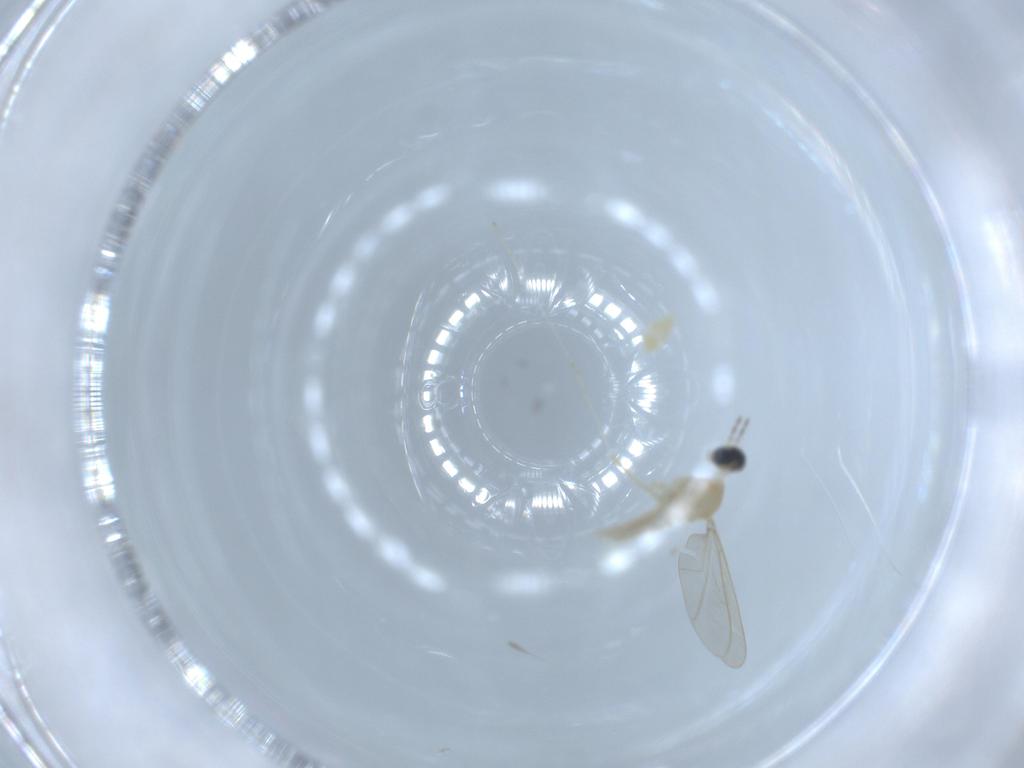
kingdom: Animalia
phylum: Arthropoda
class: Insecta
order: Diptera
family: Cecidomyiidae
